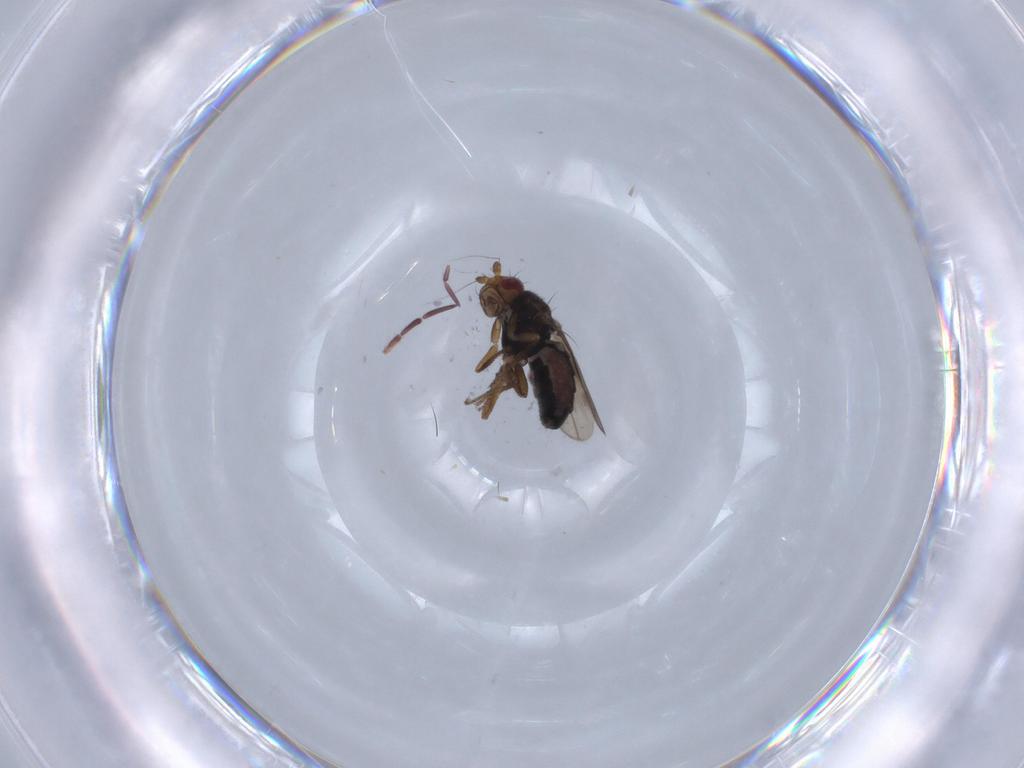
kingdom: Animalia
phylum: Arthropoda
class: Insecta
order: Diptera
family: Sphaeroceridae
